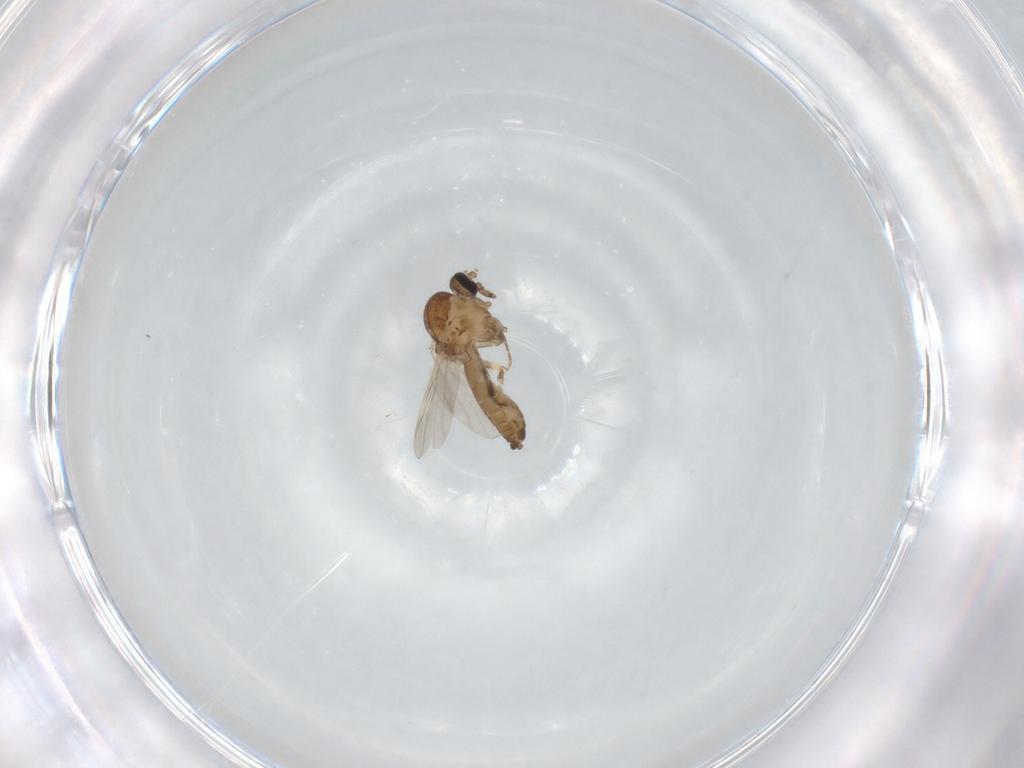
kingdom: Animalia
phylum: Arthropoda
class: Insecta
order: Diptera
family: Ceratopogonidae
